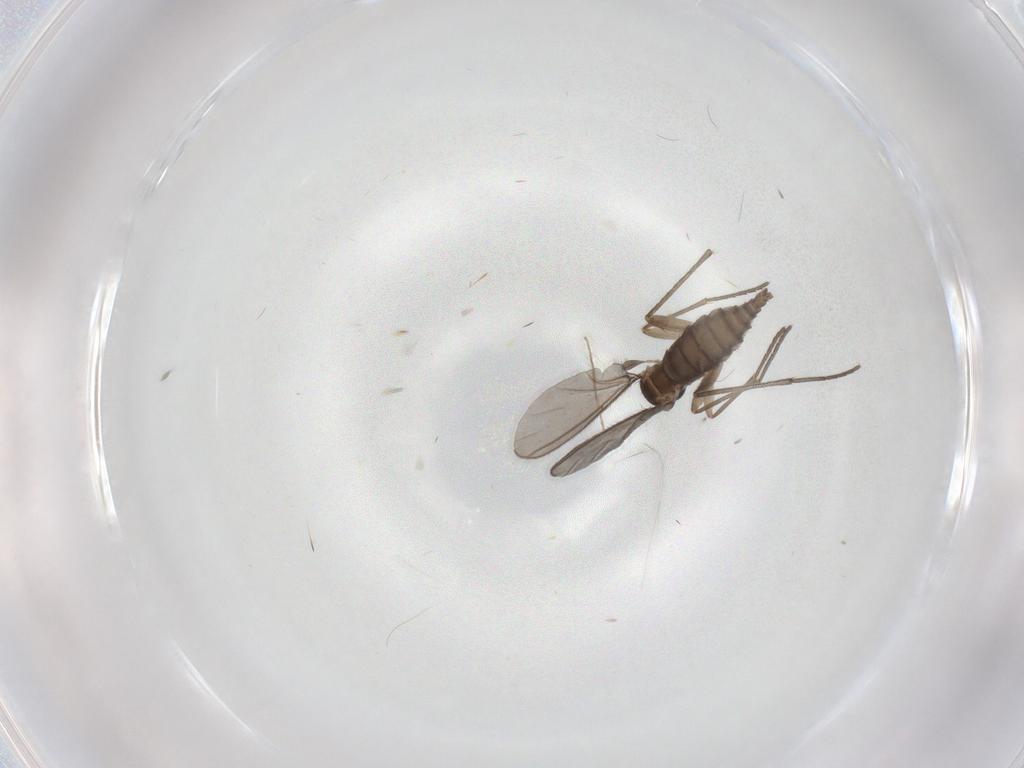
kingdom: Animalia
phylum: Arthropoda
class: Insecta
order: Diptera
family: Sciaridae
